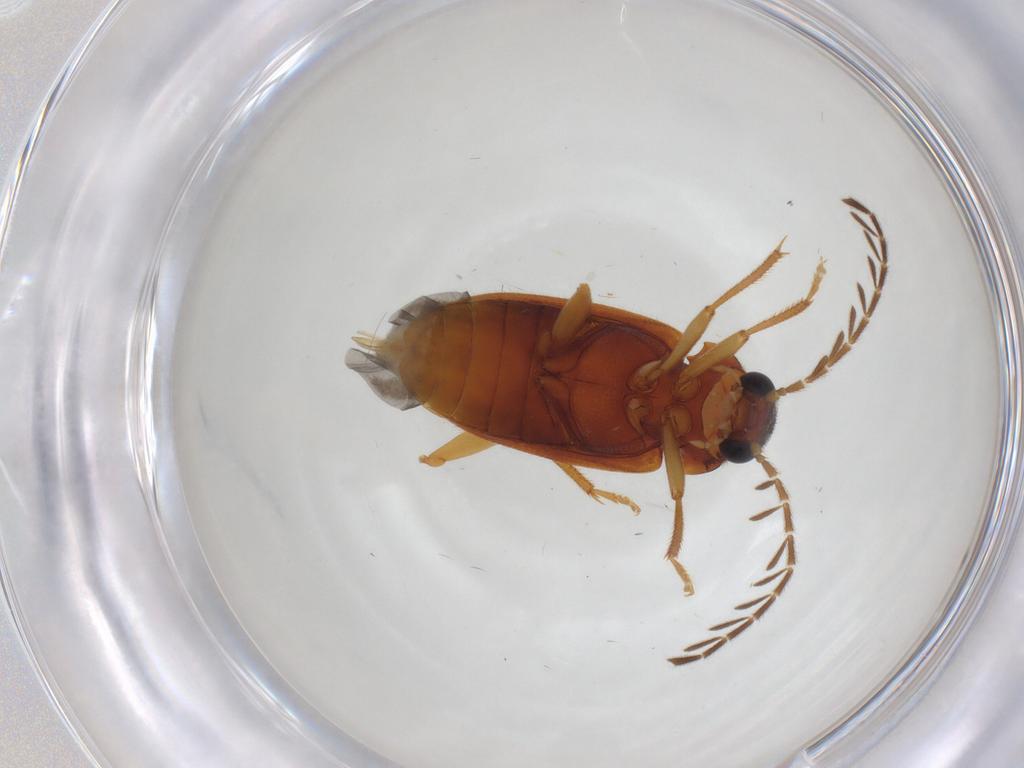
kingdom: Animalia
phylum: Arthropoda
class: Insecta
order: Coleoptera
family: Ptilodactylidae
